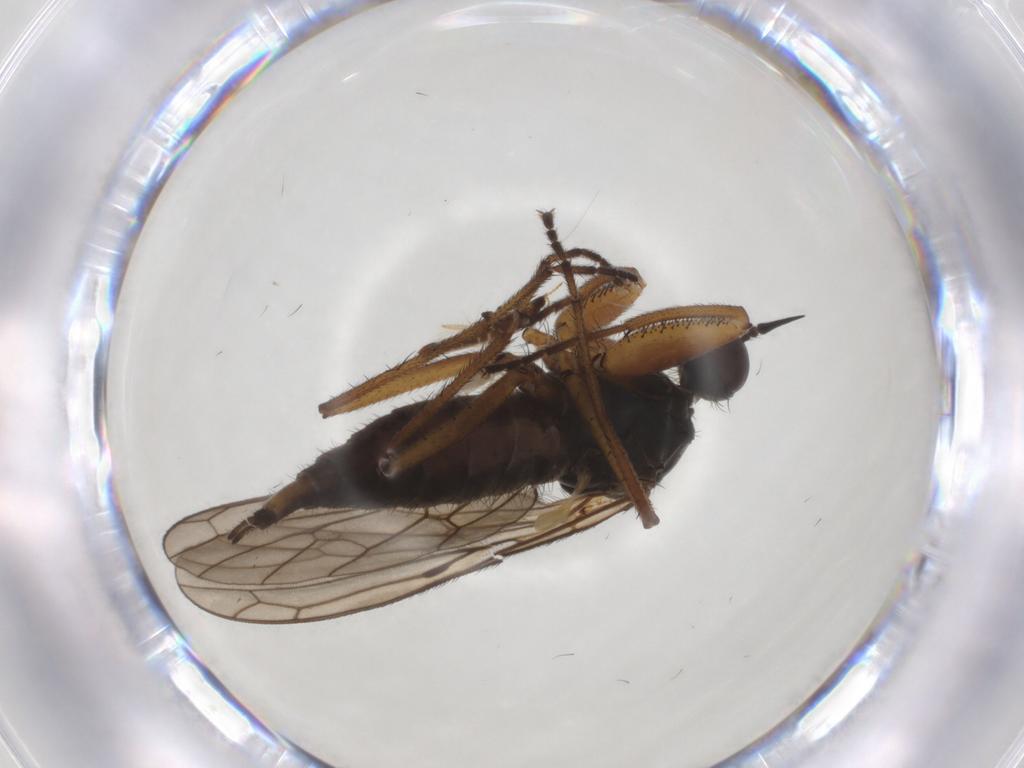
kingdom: Animalia
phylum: Arthropoda
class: Insecta
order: Diptera
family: Chironomidae
